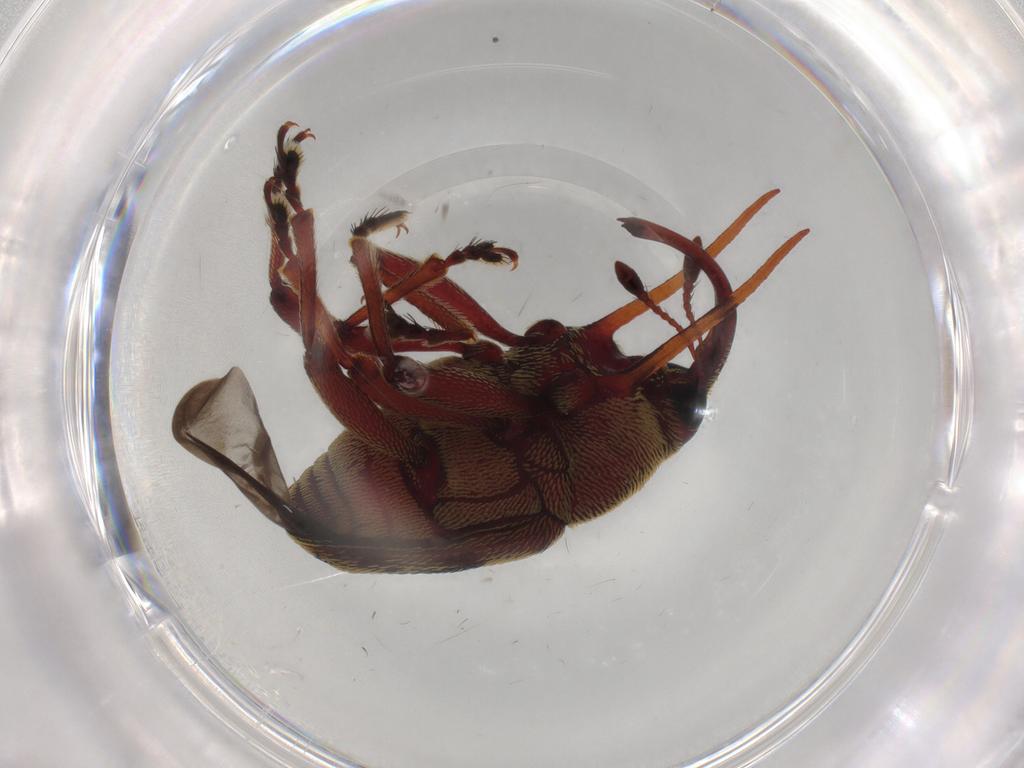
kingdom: Animalia
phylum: Arthropoda
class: Insecta
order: Coleoptera
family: Curculionidae
